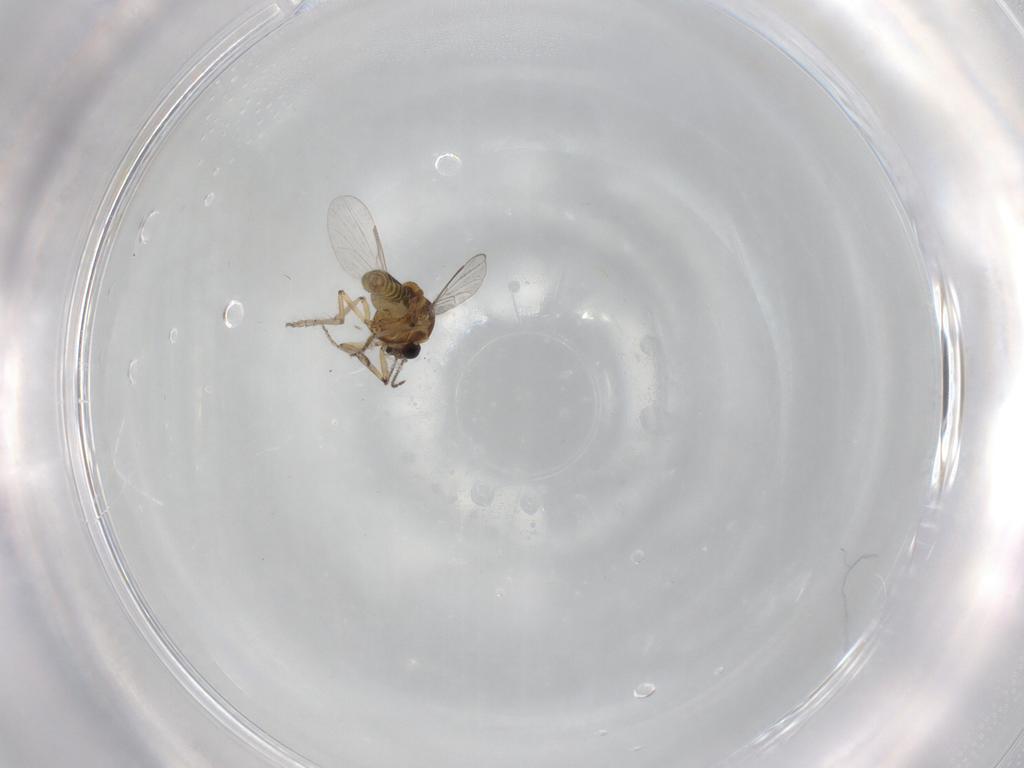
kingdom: Animalia
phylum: Arthropoda
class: Insecta
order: Diptera
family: Ceratopogonidae
